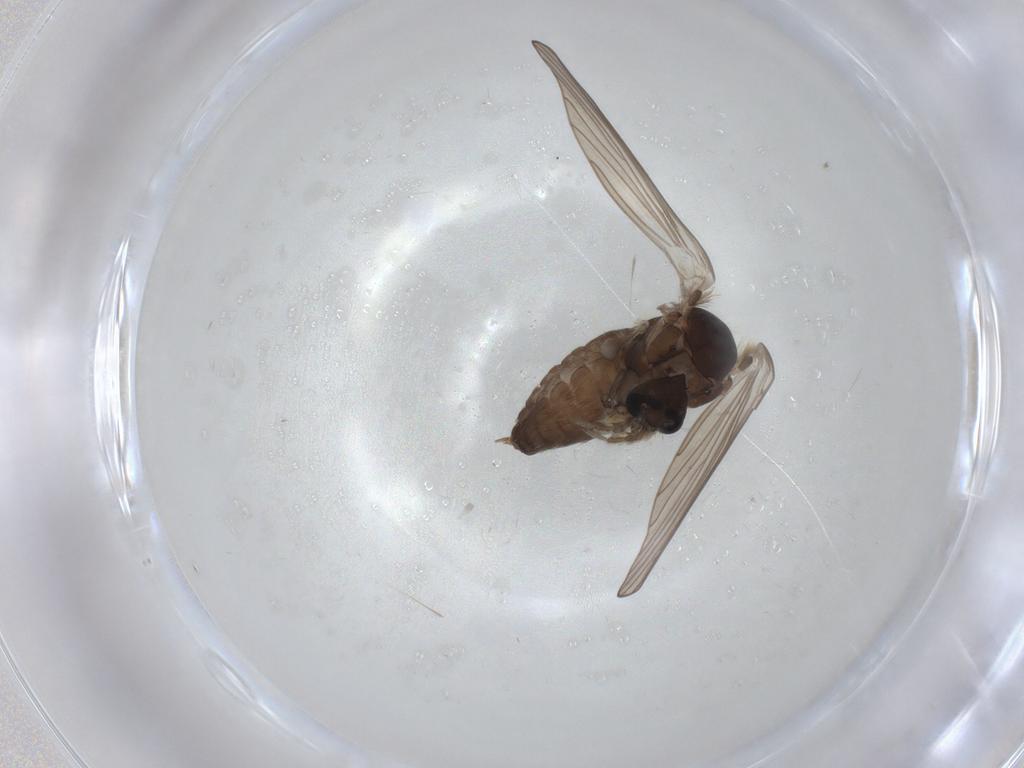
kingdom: Animalia
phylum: Arthropoda
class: Insecta
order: Diptera
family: Psychodidae
